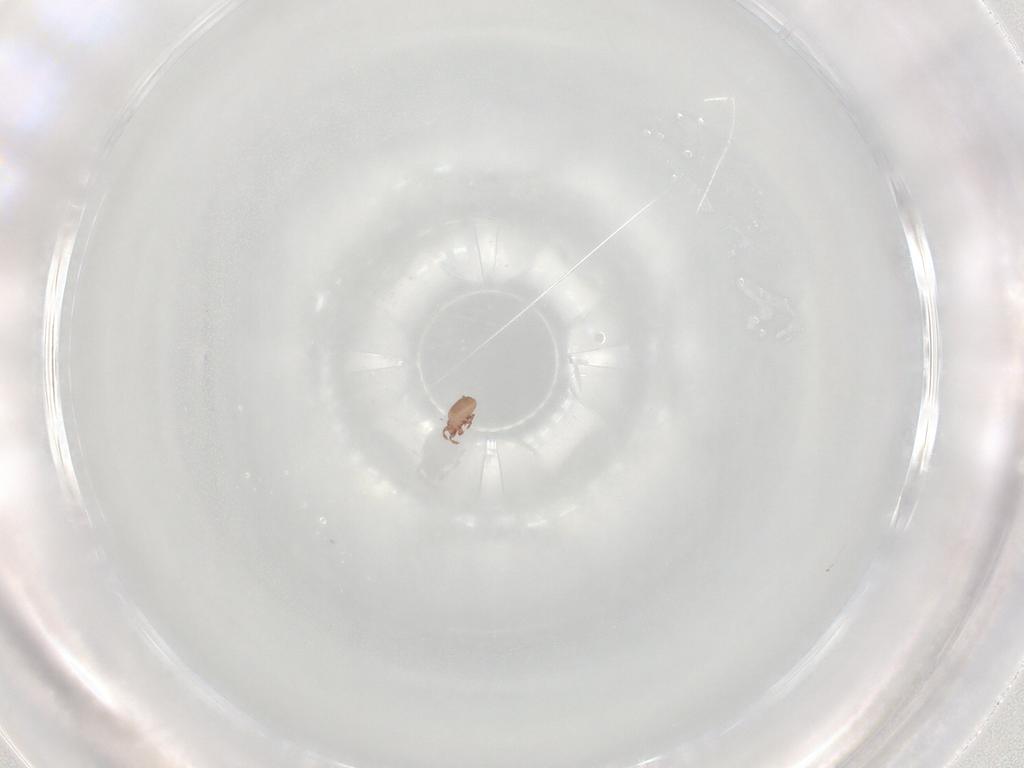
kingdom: Animalia
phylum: Arthropoda
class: Arachnida
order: Sarcoptiformes
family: Eremaeidae
